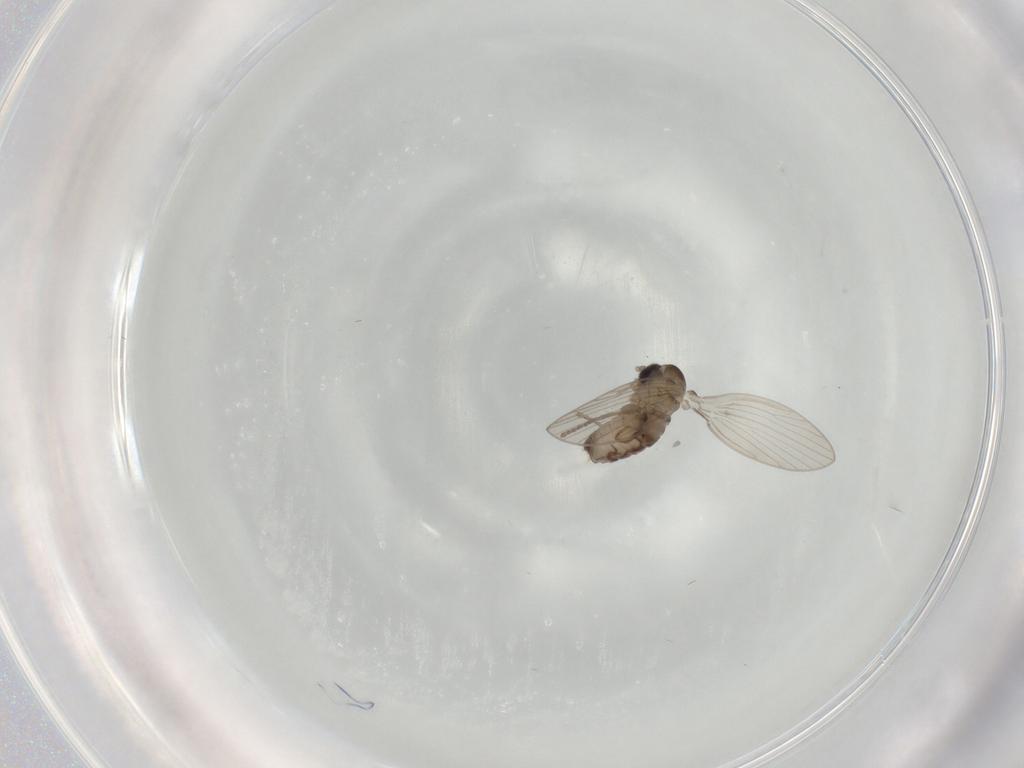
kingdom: Animalia
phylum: Arthropoda
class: Insecta
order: Diptera
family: Psychodidae
